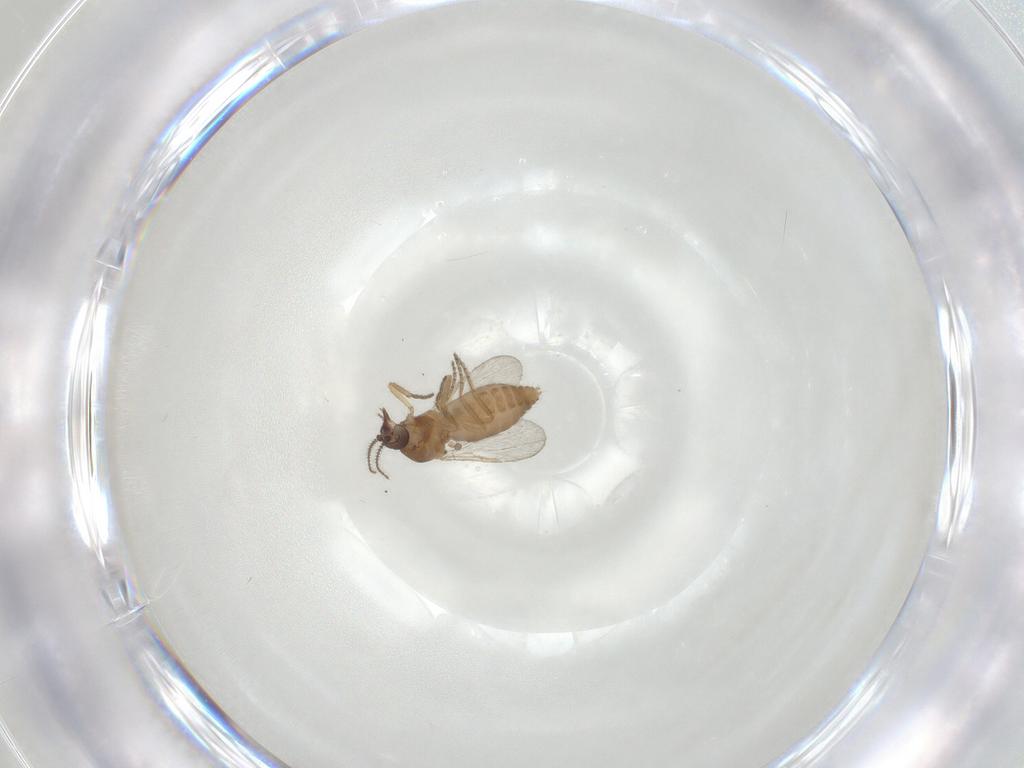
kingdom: Animalia
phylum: Arthropoda
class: Insecta
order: Diptera
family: Ceratopogonidae
